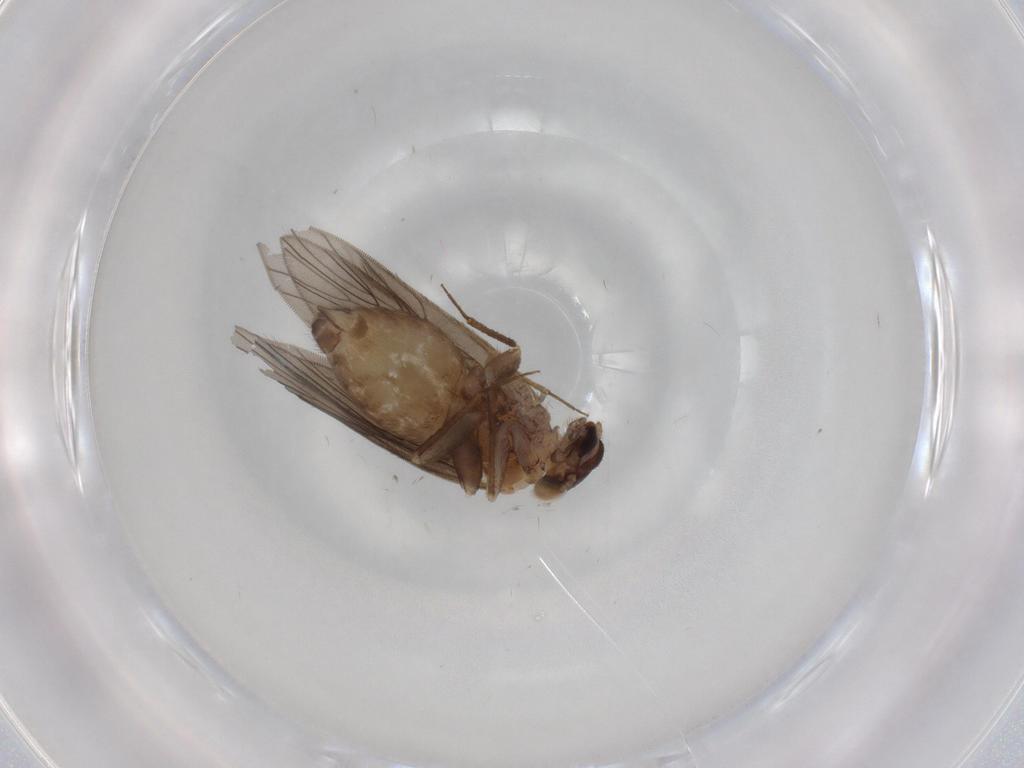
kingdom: Animalia
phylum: Arthropoda
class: Insecta
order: Psocodea
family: Lepidopsocidae
